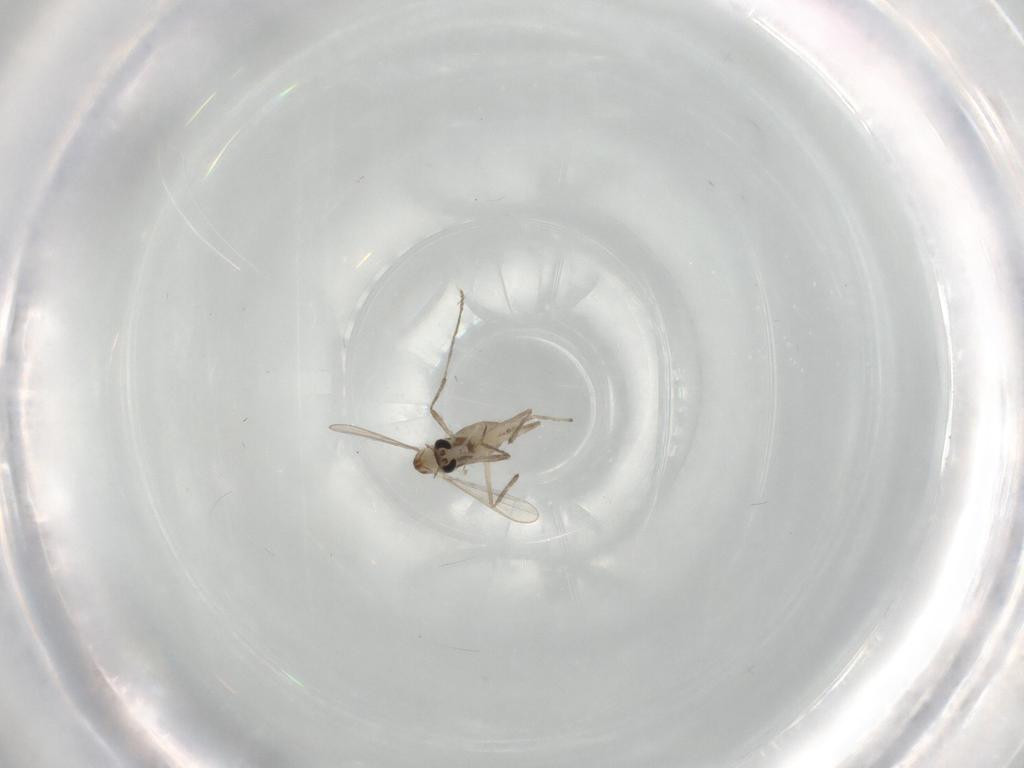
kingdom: Animalia
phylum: Arthropoda
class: Insecta
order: Diptera
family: Chironomidae
